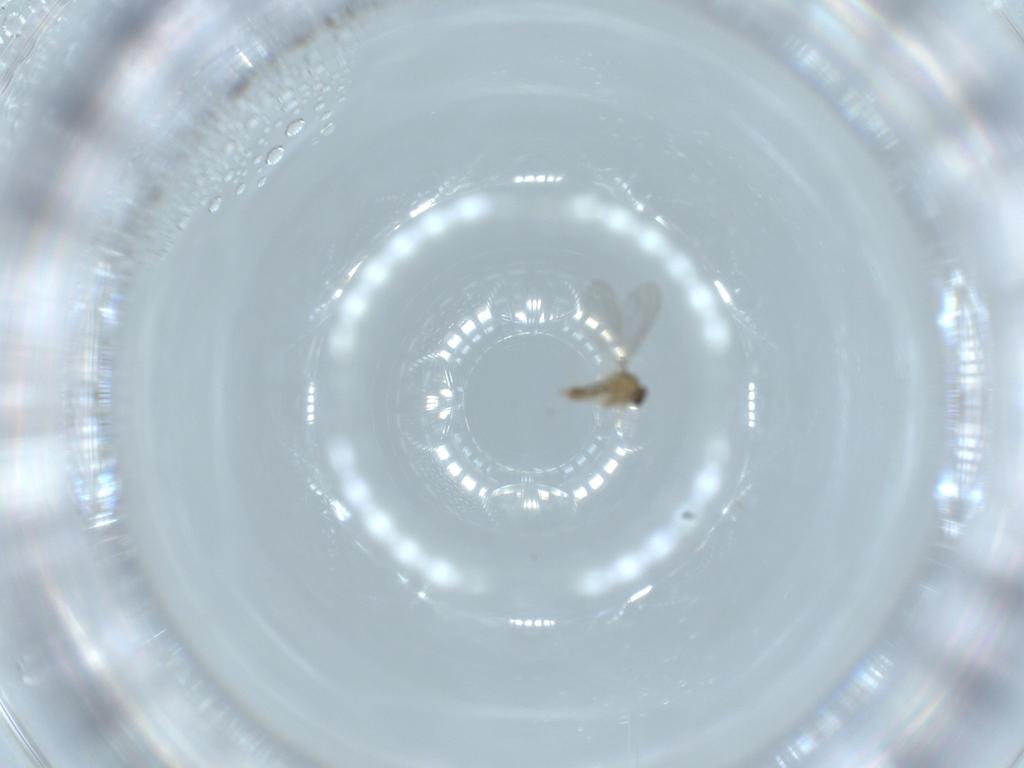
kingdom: Animalia
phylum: Arthropoda
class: Insecta
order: Diptera
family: Cecidomyiidae
